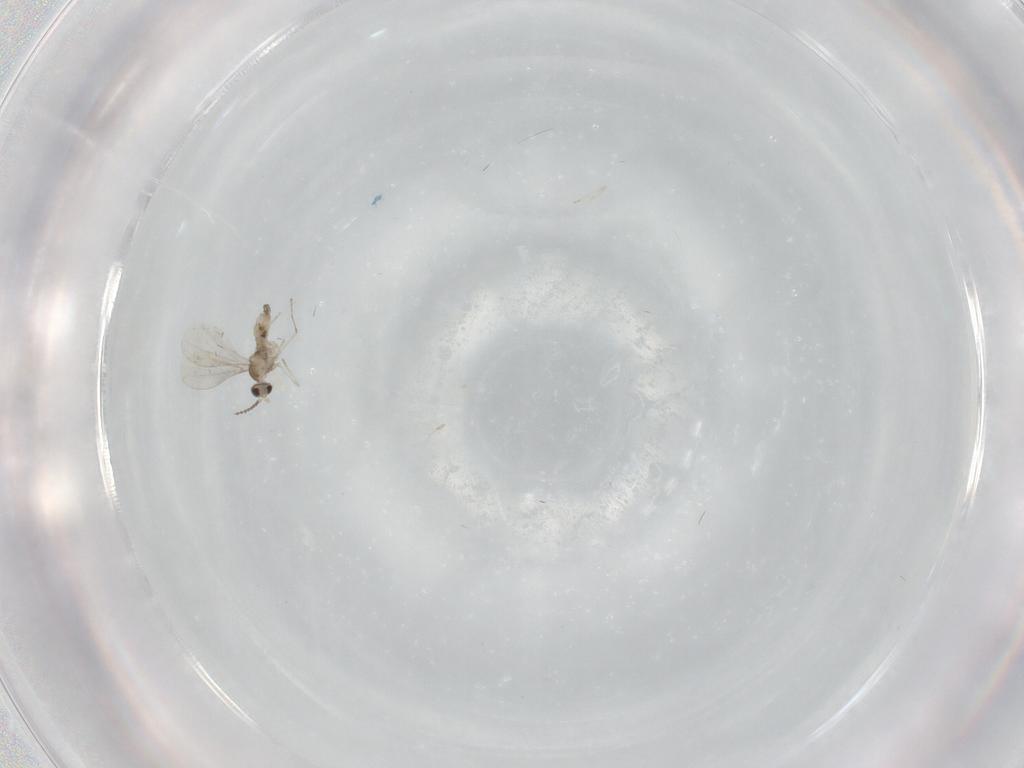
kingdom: Animalia
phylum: Arthropoda
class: Insecta
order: Diptera
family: Cecidomyiidae
